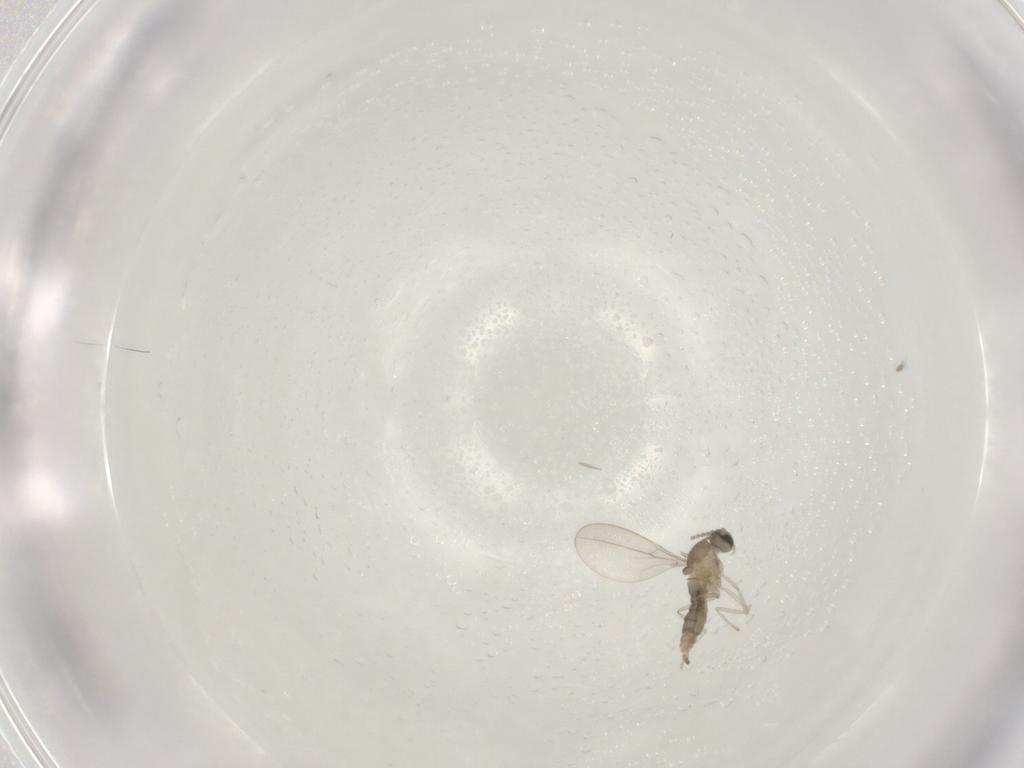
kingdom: Animalia
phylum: Arthropoda
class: Insecta
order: Diptera
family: Cecidomyiidae
